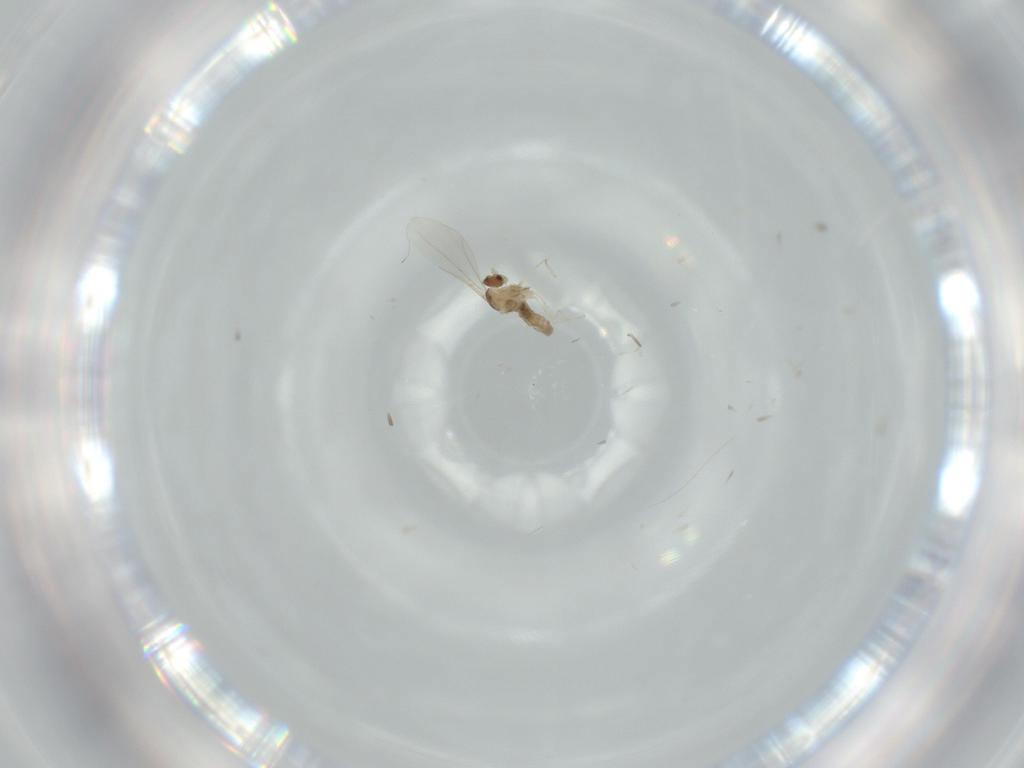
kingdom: Animalia
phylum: Arthropoda
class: Insecta
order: Diptera
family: Cecidomyiidae
